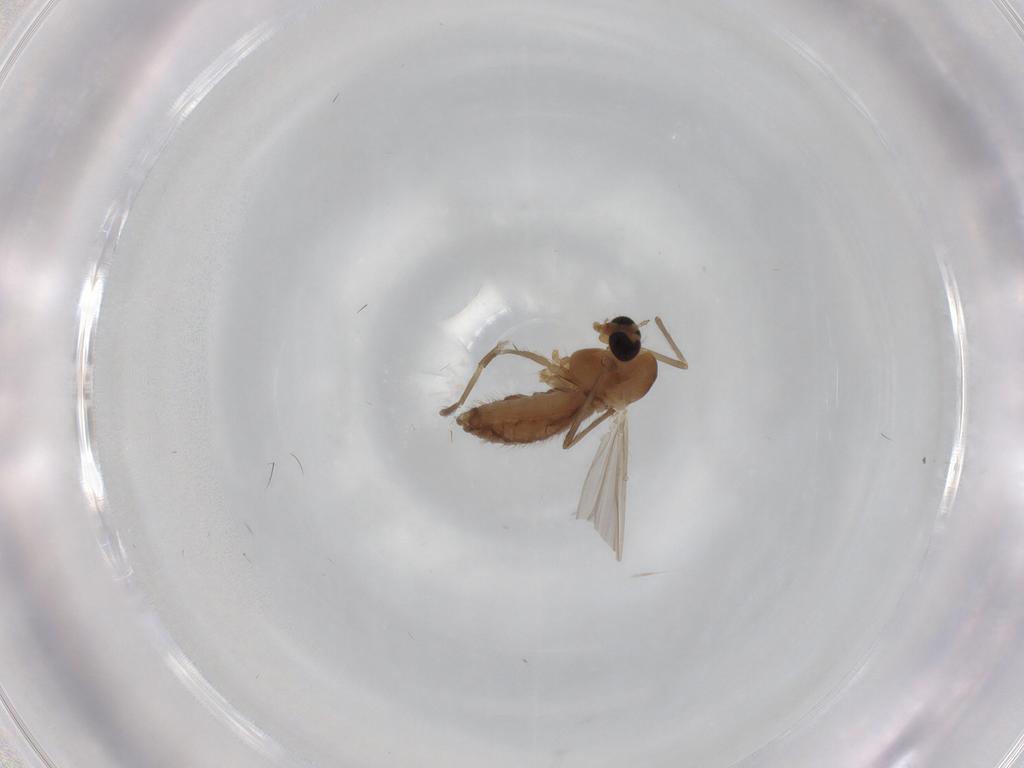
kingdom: Animalia
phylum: Arthropoda
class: Insecta
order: Diptera
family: Chironomidae
